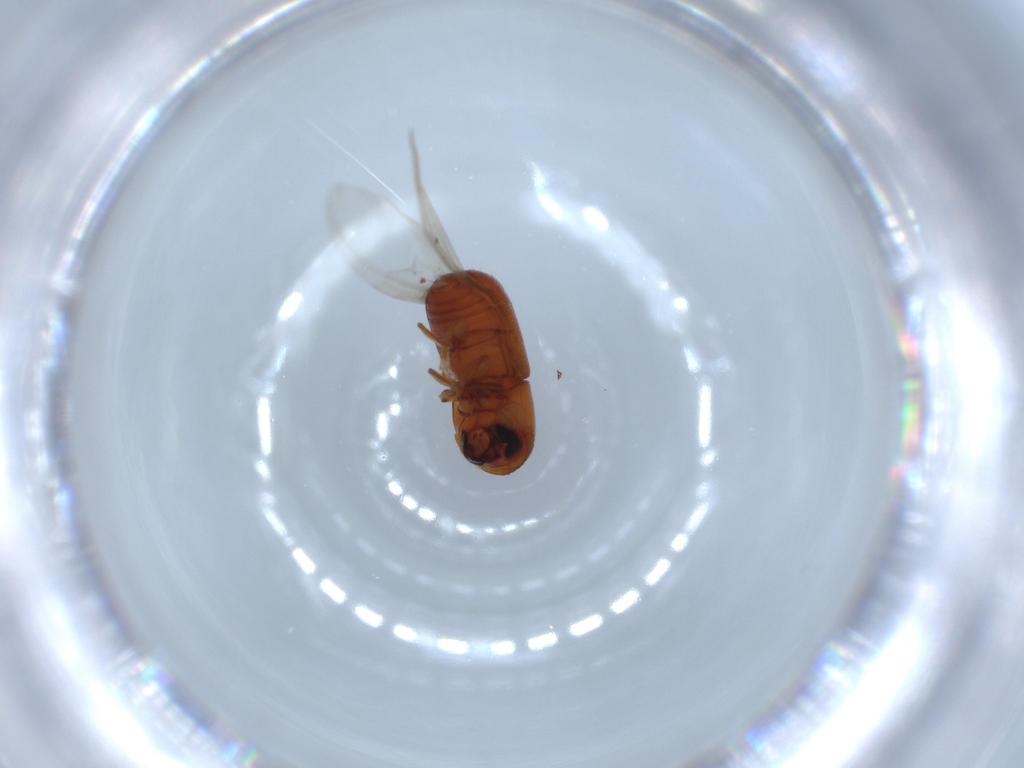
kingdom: Animalia
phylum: Arthropoda
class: Insecta
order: Coleoptera
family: Curculionidae
